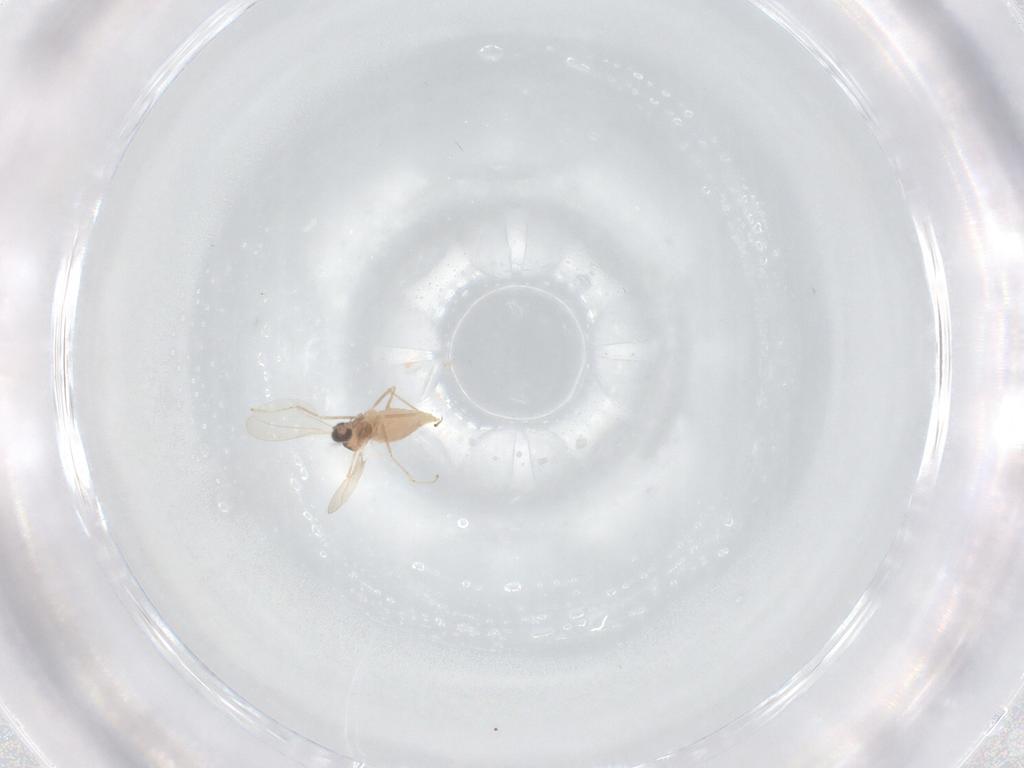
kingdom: Animalia
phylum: Arthropoda
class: Insecta
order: Diptera
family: Cecidomyiidae
